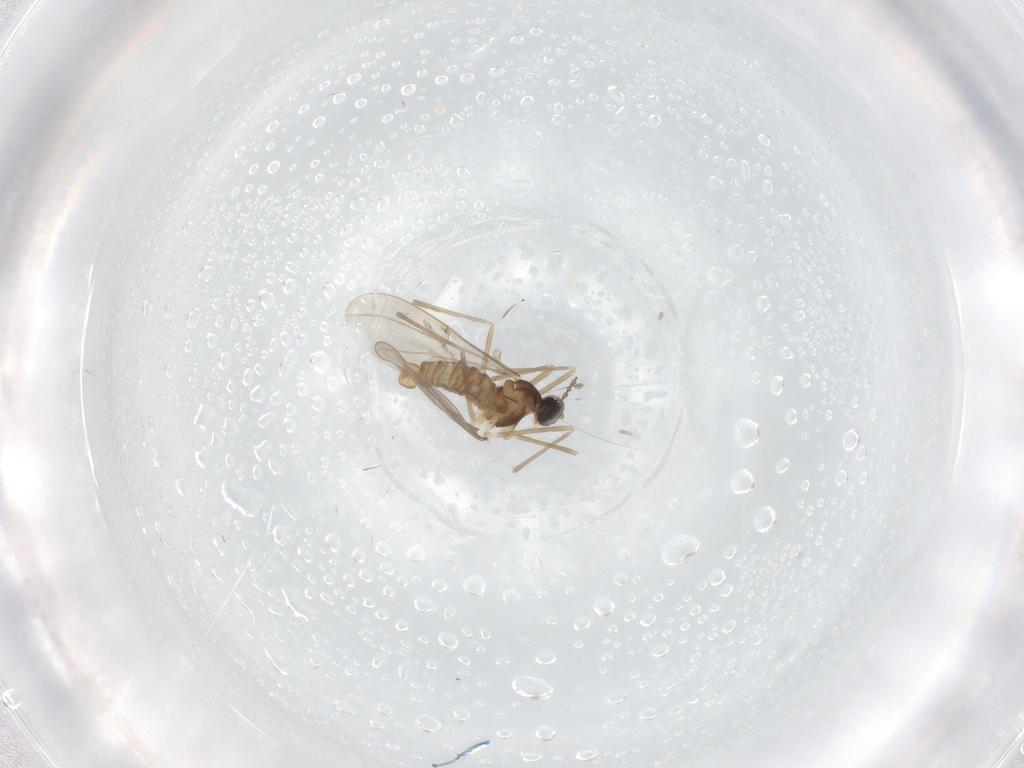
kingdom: Animalia
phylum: Arthropoda
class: Insecta
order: Diptera
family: Cecidomyiidae
